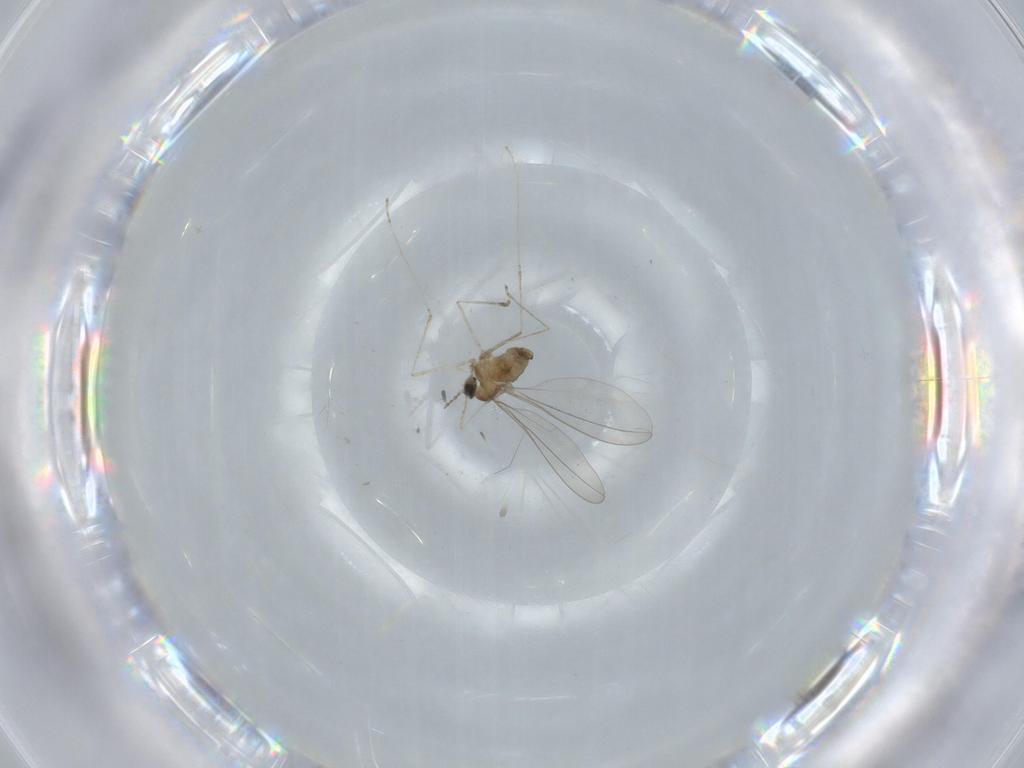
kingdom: Animalia
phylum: Arthropoda
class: Insecta
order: Diptera
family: Cecidomyiidae
